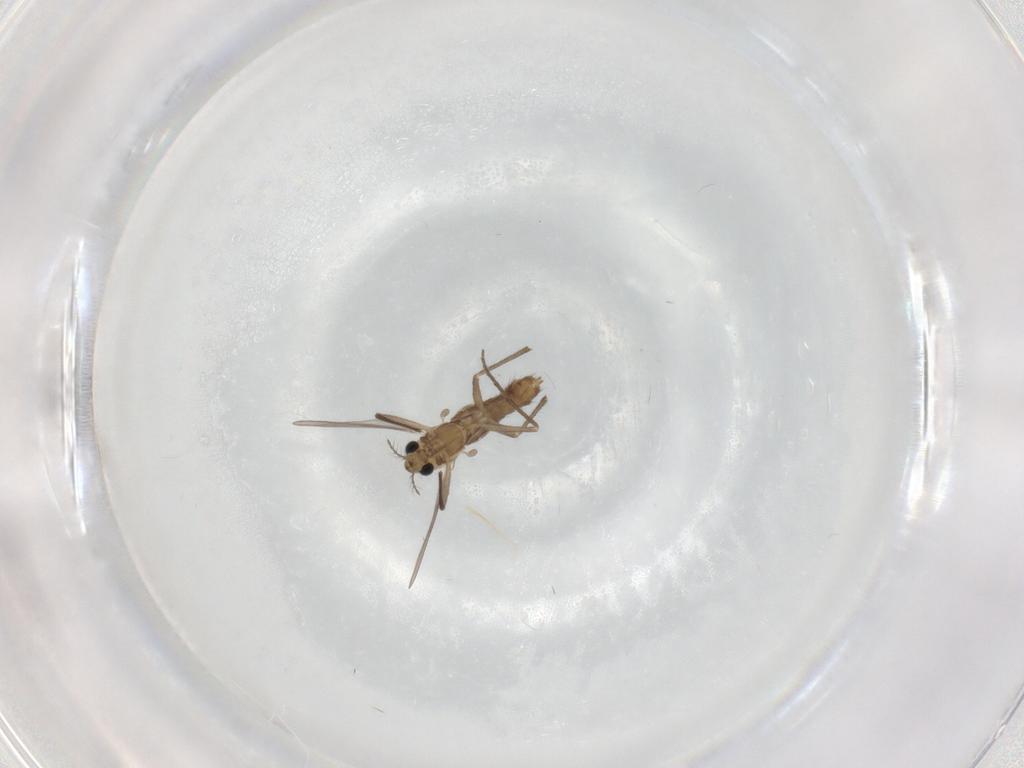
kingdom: Animalia
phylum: Arthropoda
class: Insecta
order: Diptera
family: Chironomidae
